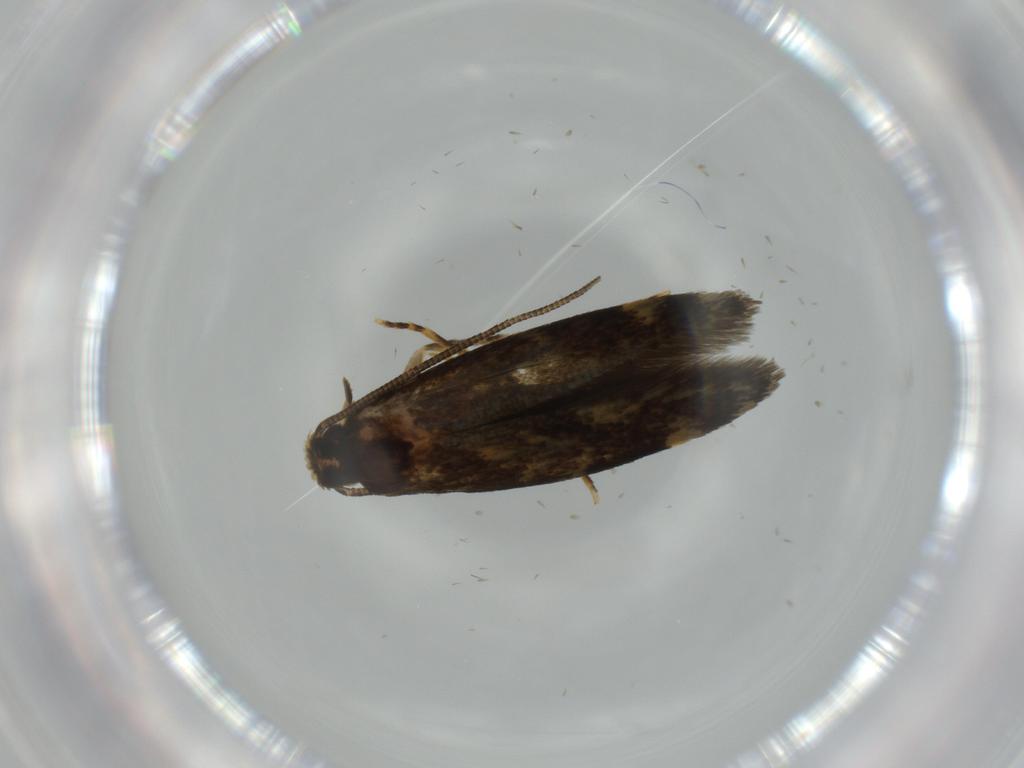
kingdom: Animalia
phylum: Arthropoda
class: Insecta
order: Lepidoptera
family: Tineidae
